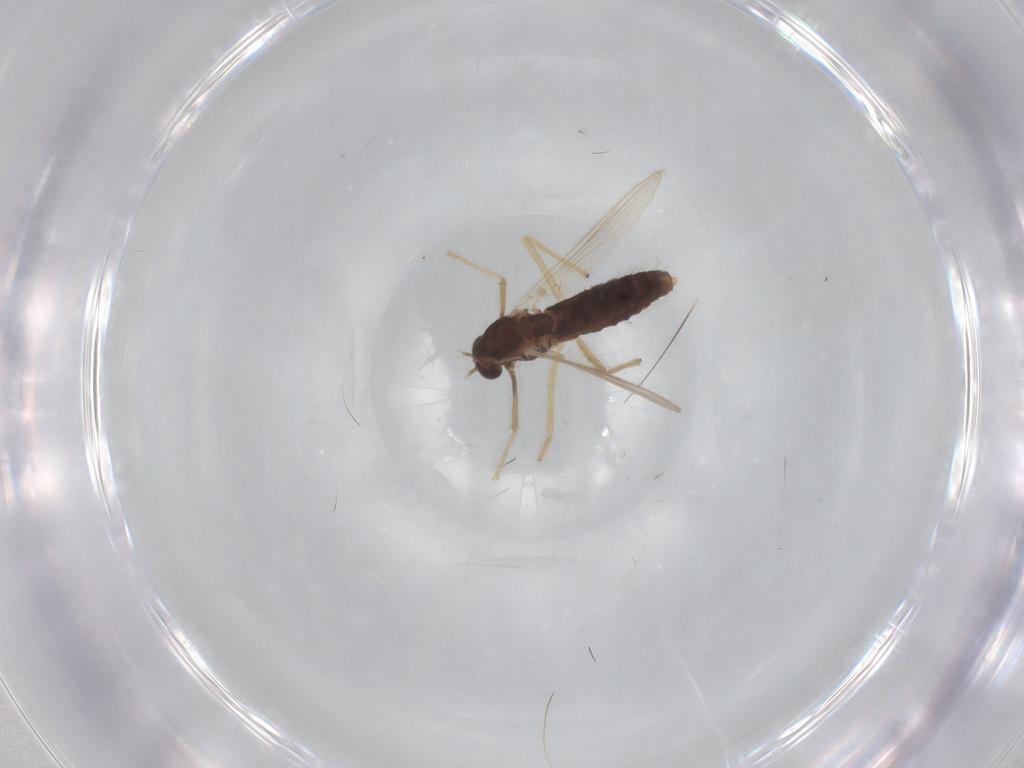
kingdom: Animalia
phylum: Arthropoda
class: Insecta
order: Diptera
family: Chironomidae
